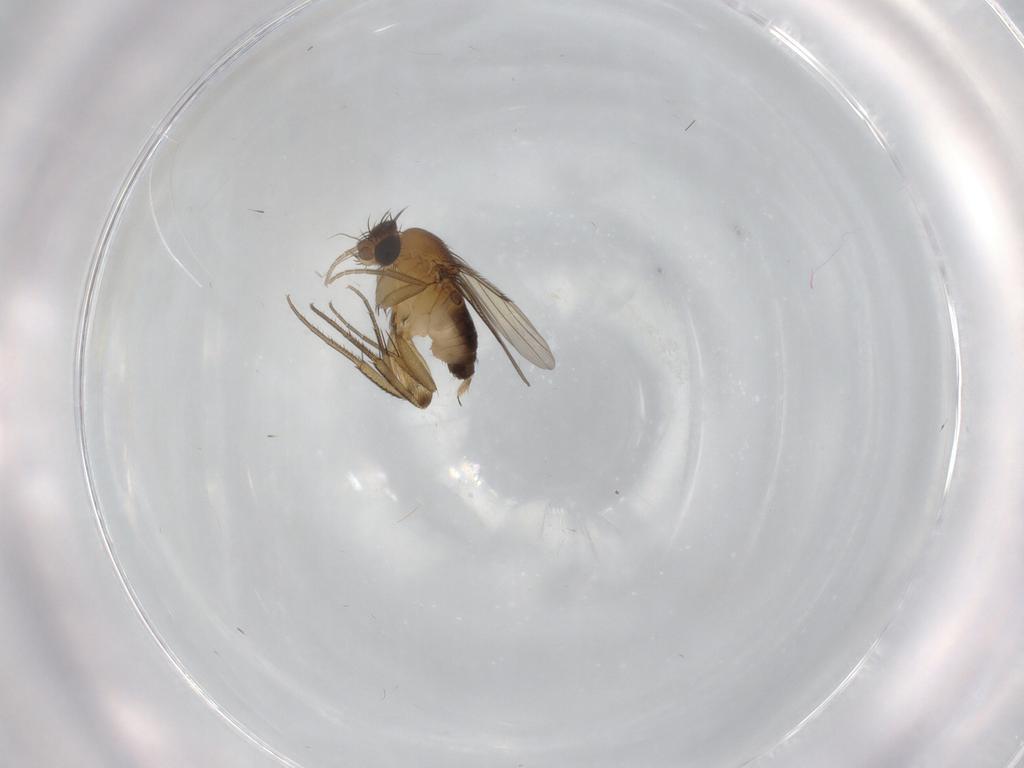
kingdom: Animalia
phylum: Arthropoda
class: Insecta
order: Diptera
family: Phoridae
